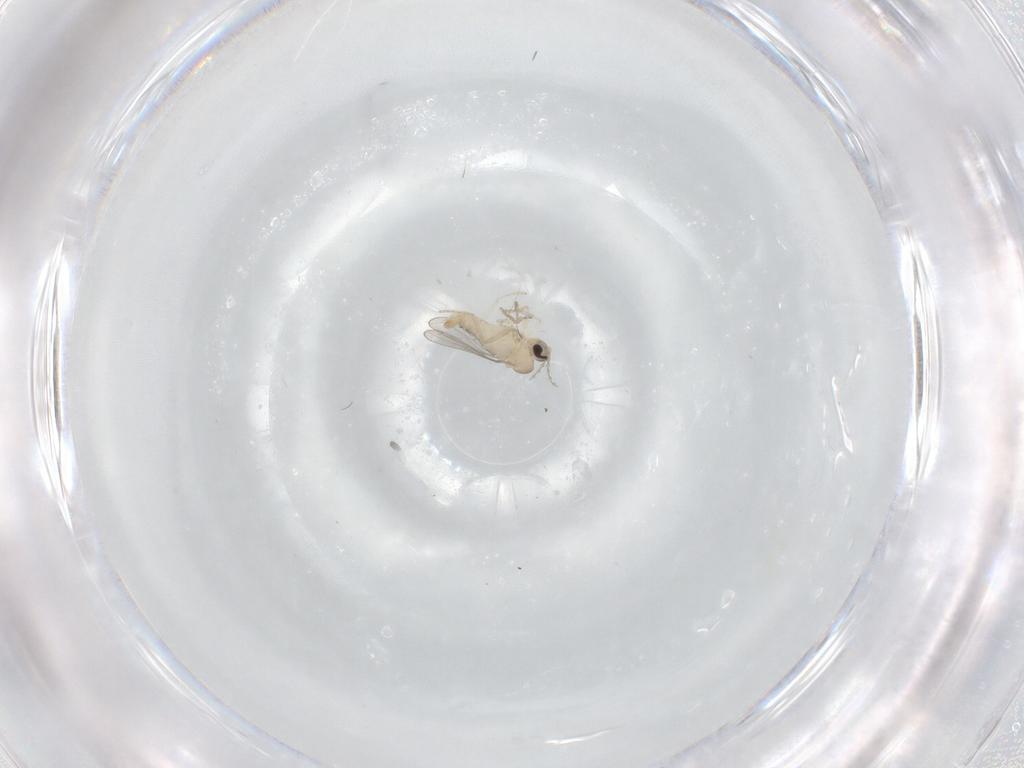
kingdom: Animalia
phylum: Arthropoda
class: Insecta
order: Diptera
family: Cecidomyiidae
